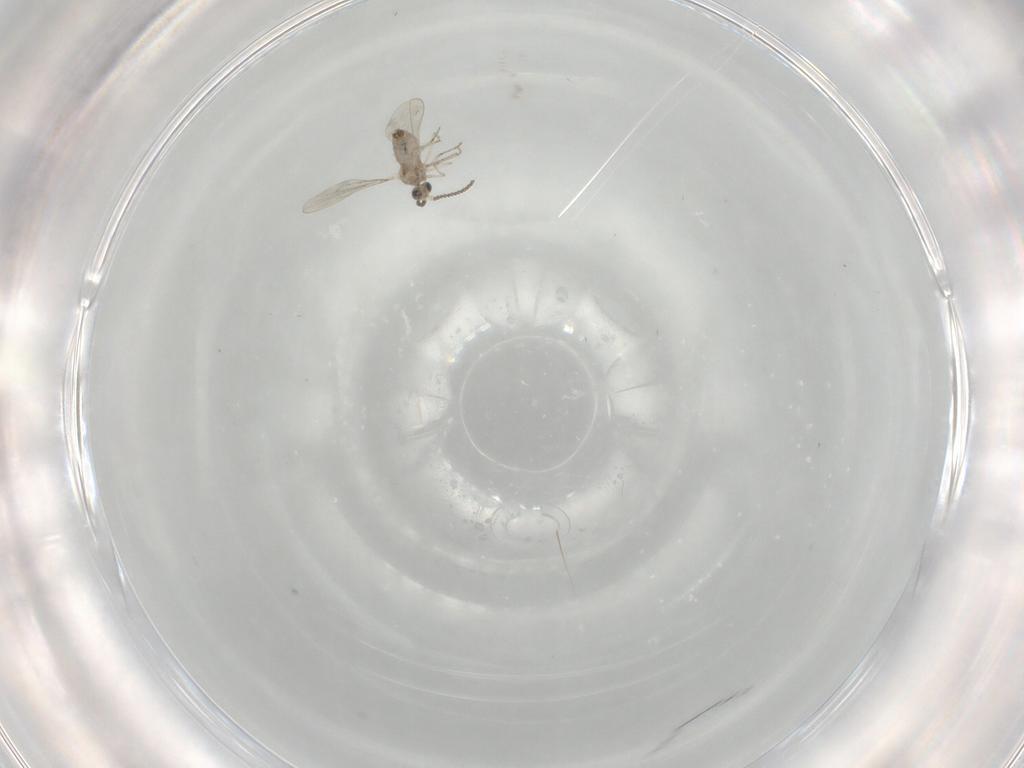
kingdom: Animalia
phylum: Arthropoda
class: Insecta
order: Diptera
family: Cecidomyiidae
